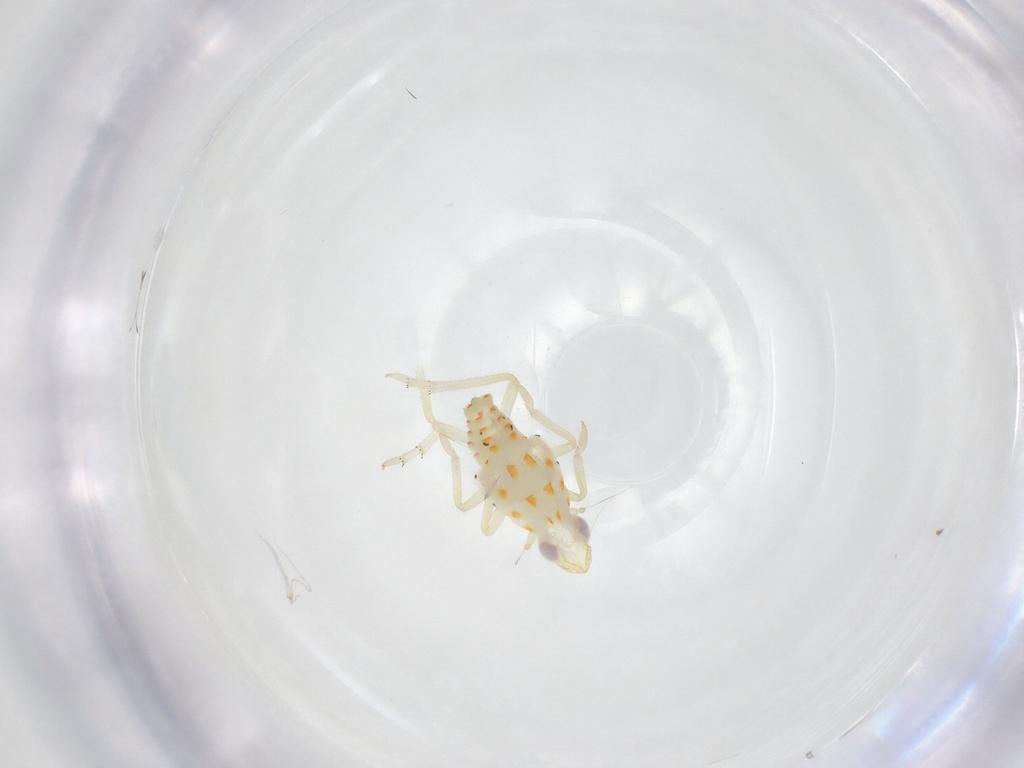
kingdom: Animalia
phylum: Arthropoda
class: Insecta
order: Hemiptera
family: Tropiduchidae
